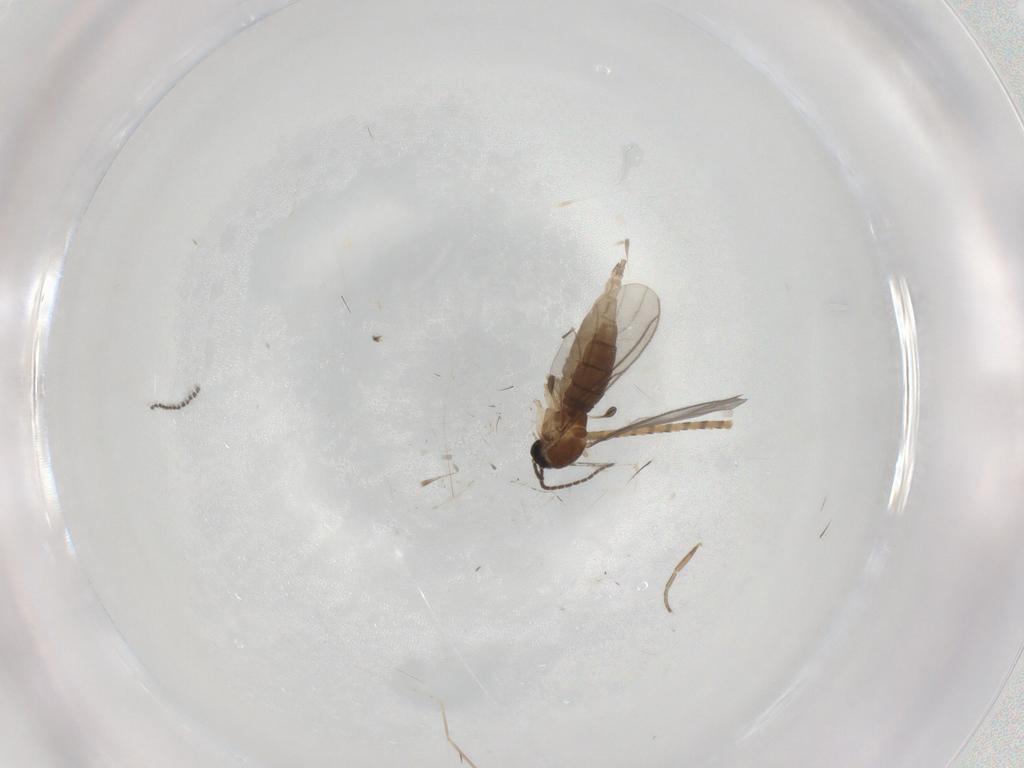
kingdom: Animalia
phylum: Arthropoda
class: Insecta
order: Diptera
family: Sciaridae
